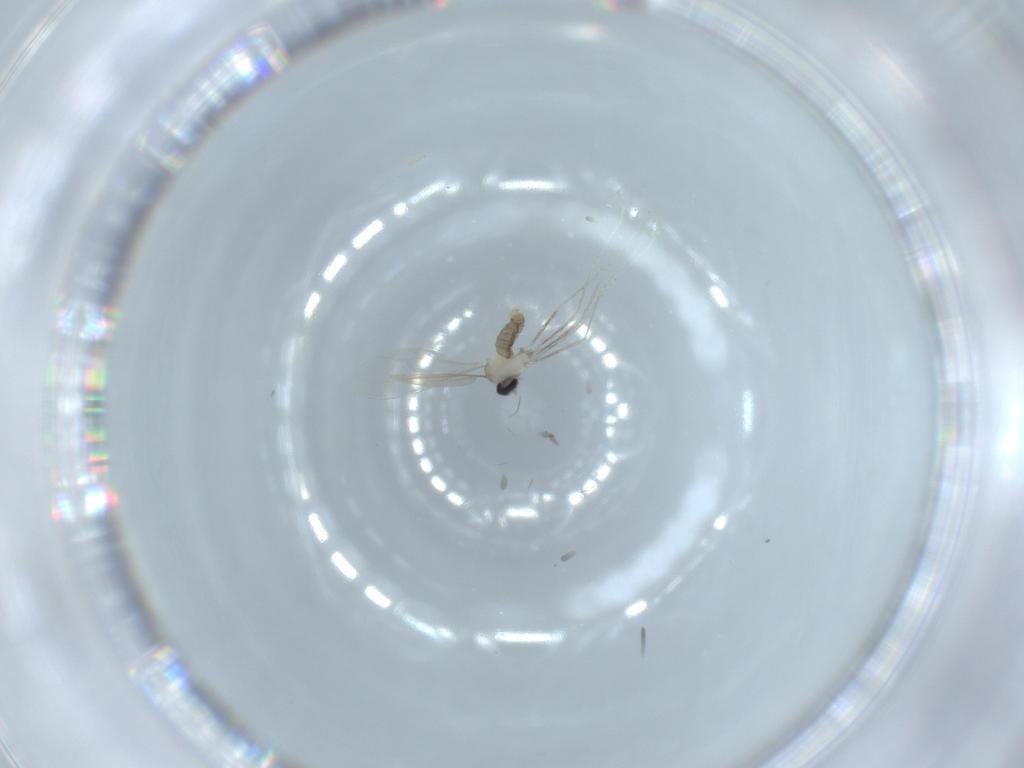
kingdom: Animalia
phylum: Arthropoda
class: Insecta
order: Diptera
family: Cecidomyiidae
